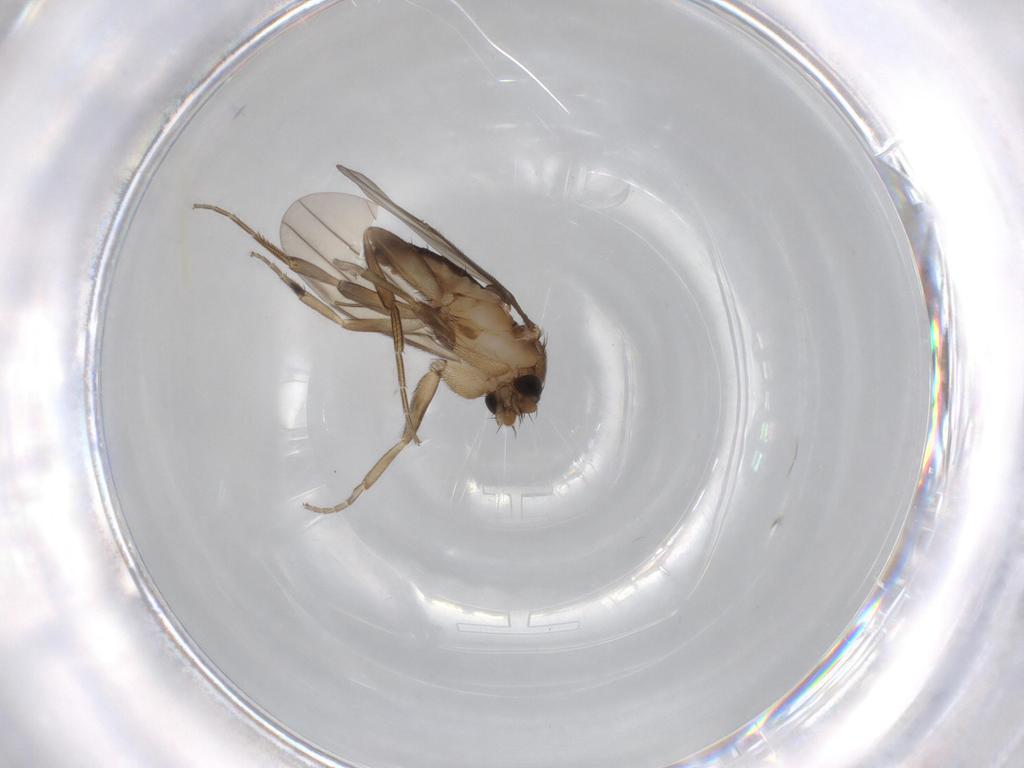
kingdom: Animalia
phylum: Arthropoda
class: Insecta
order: Diptera
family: Phoridae
